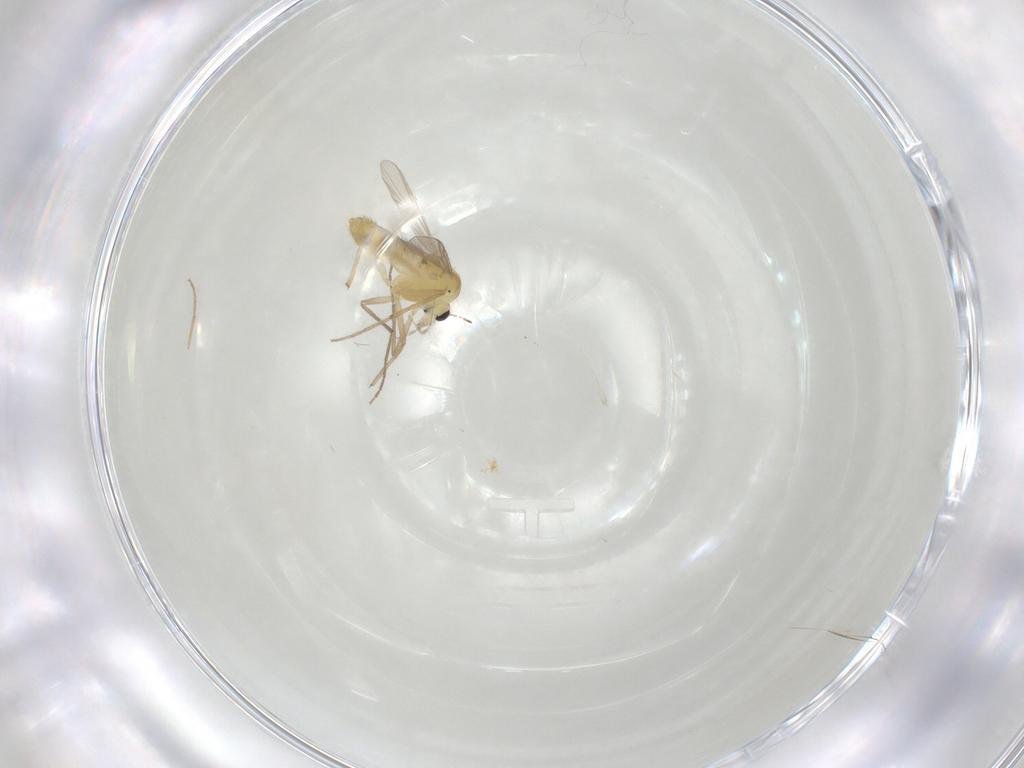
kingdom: Animalia
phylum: Arthropoda
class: Insecta
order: Diptera
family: Chironomidae
